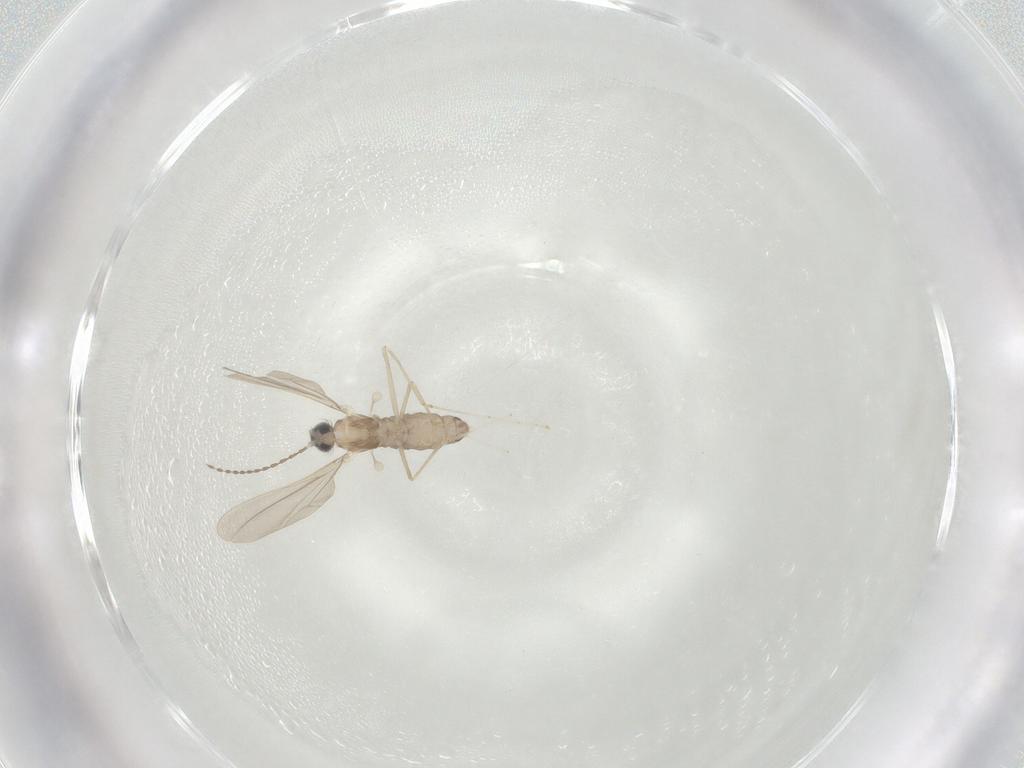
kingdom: Animalia
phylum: Arthropoda
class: Insecta
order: Diptera
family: Cecidomyiidae
